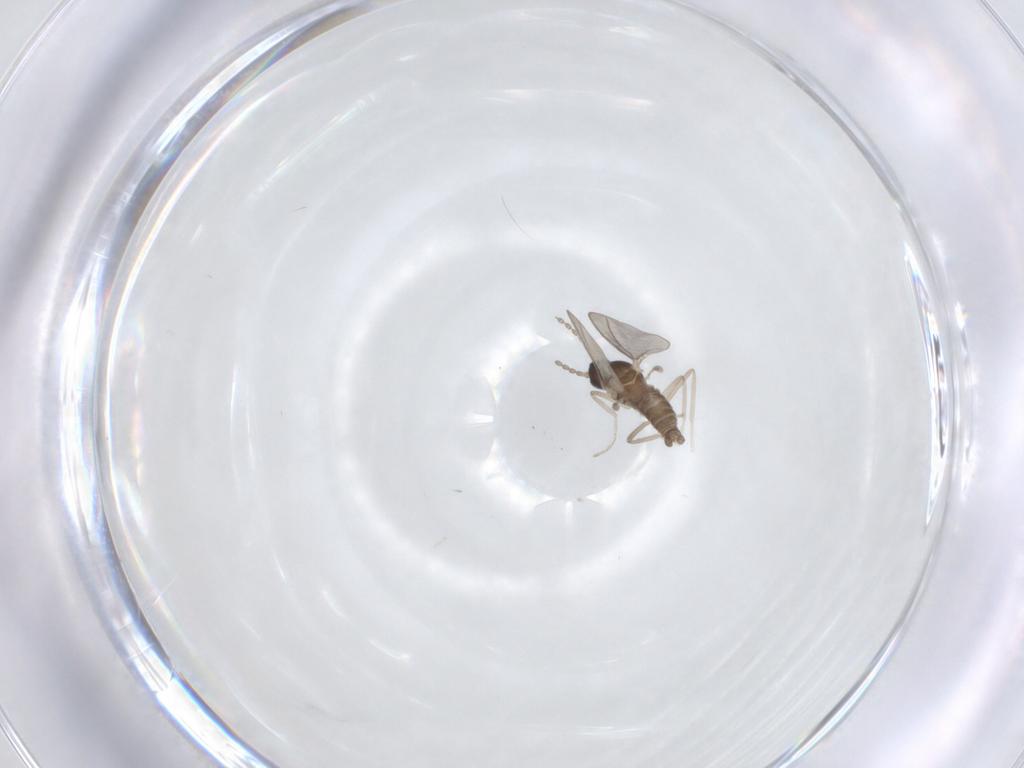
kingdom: Animalia
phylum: Arthropoda
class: Insecta
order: Diptera
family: Cecidomyiidae
